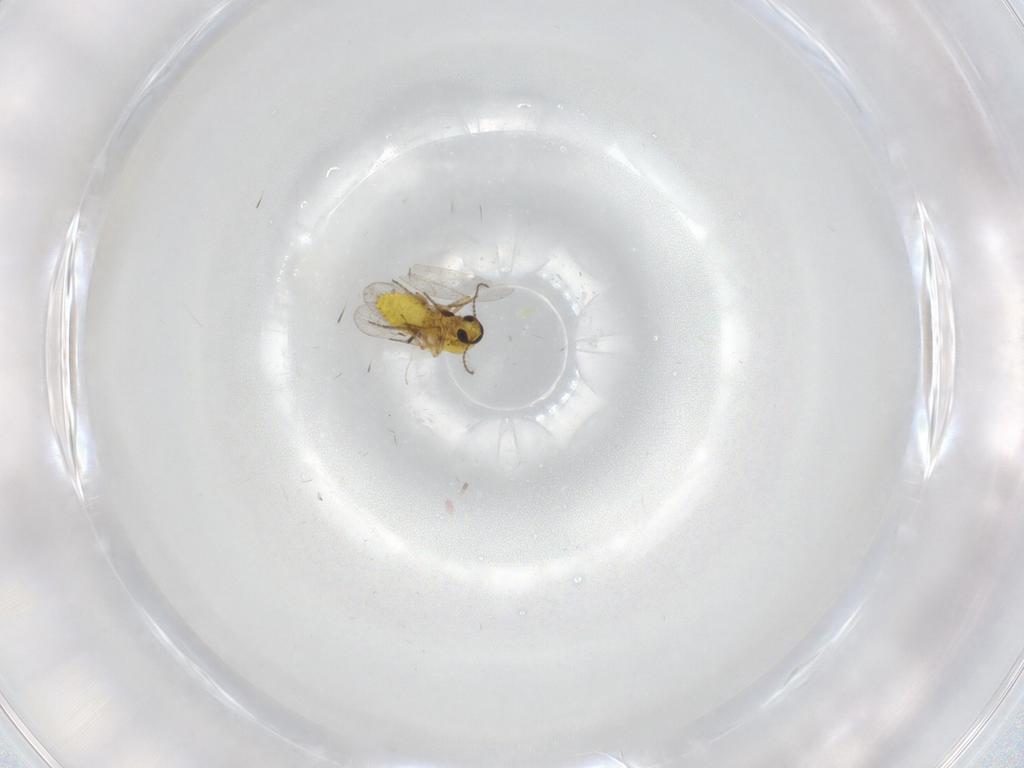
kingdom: Animalia
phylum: Arthropoda
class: Insecta
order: Diptera
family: Ceratopogonidae
